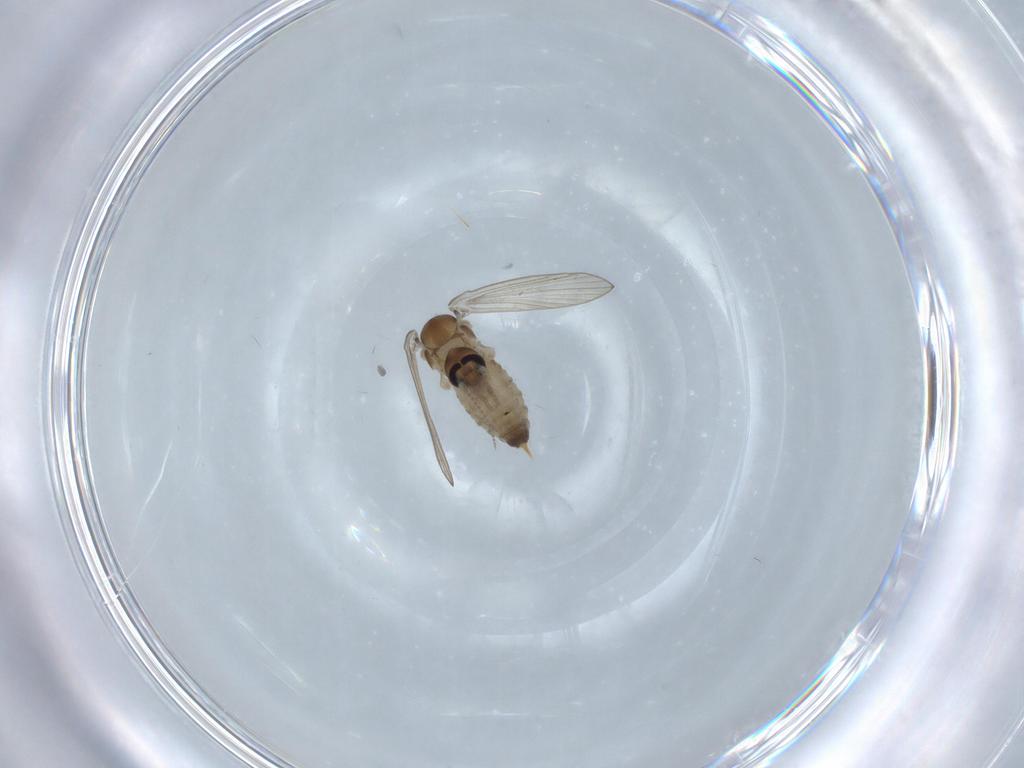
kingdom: Animalia
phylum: Arthropoda
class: Insecta
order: Diptera
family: Psychodidae
